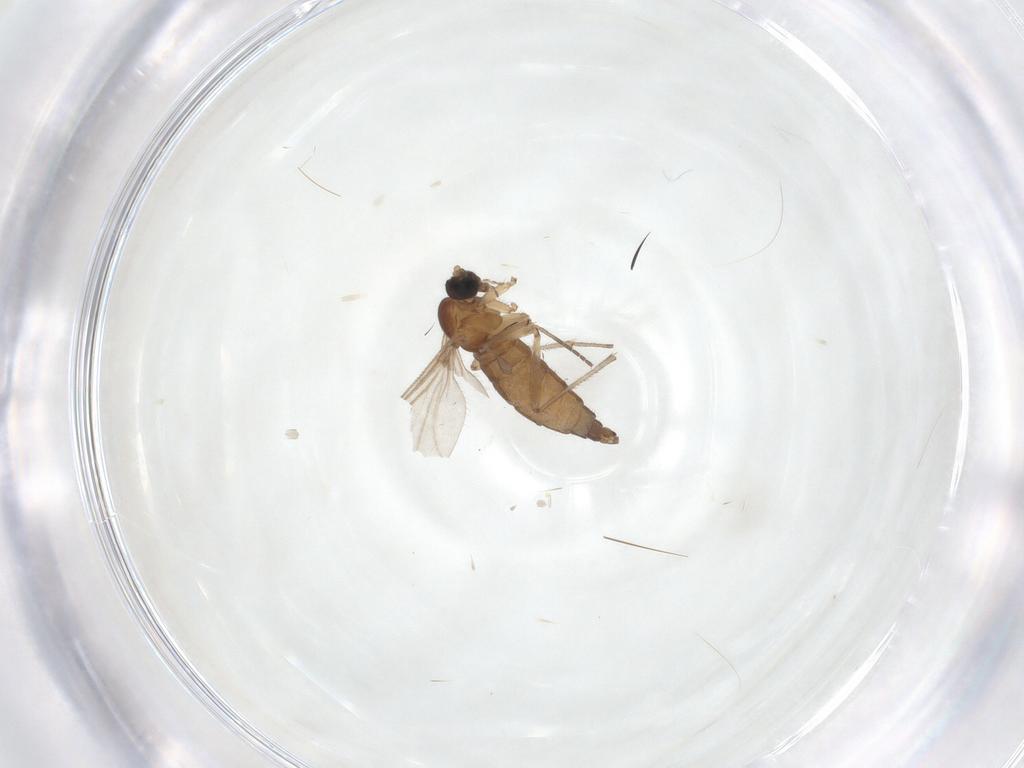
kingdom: Animalia
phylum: Arthropoda
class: Insecta
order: Diptera
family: Sciaridae
